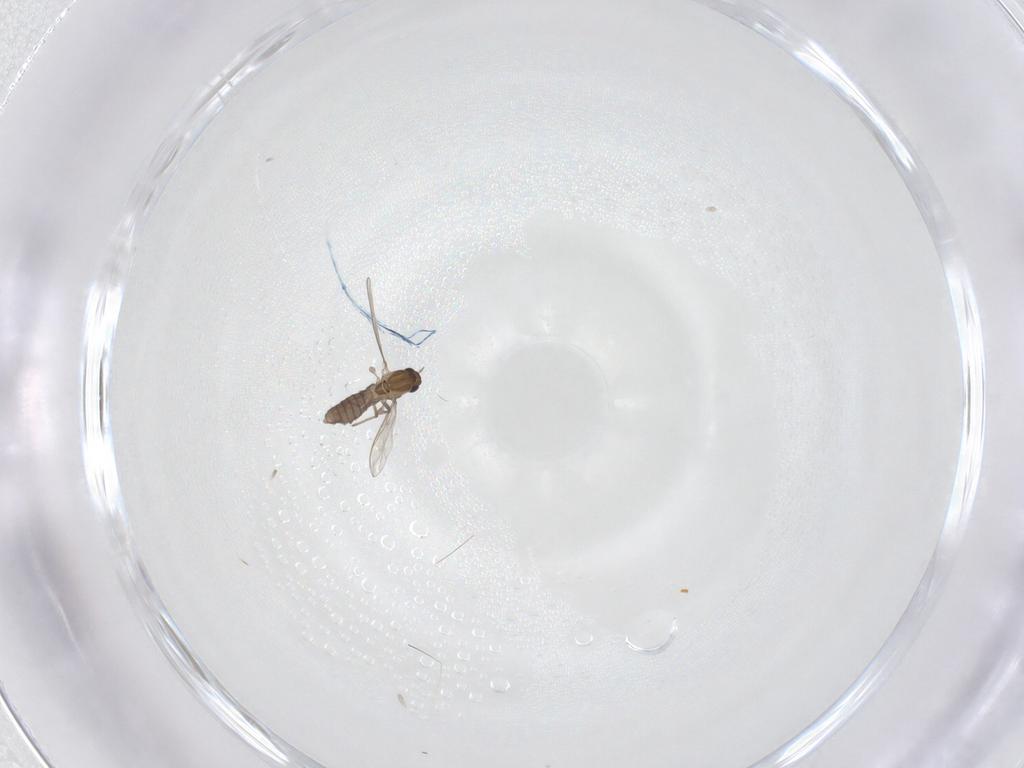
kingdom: Animalia
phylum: Arthropoda
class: Insecta
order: Diptera
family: Chironomidae
